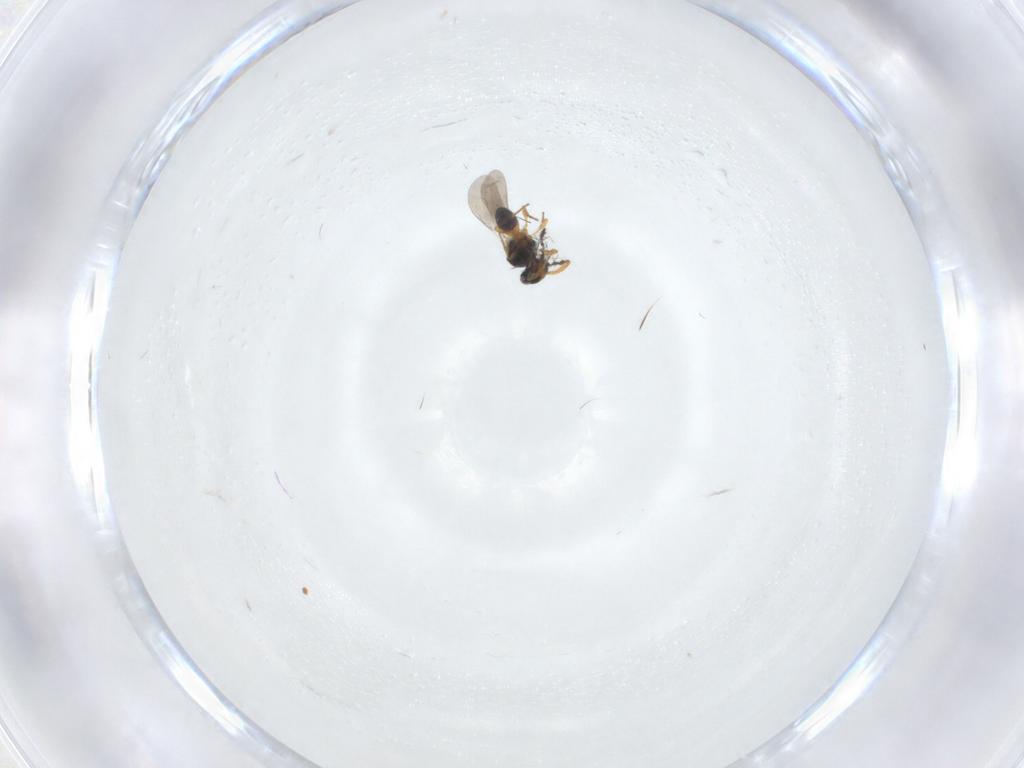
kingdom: Animalia
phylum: Arthropoda
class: Insecta
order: Hymenoptera
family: Platygastridae
